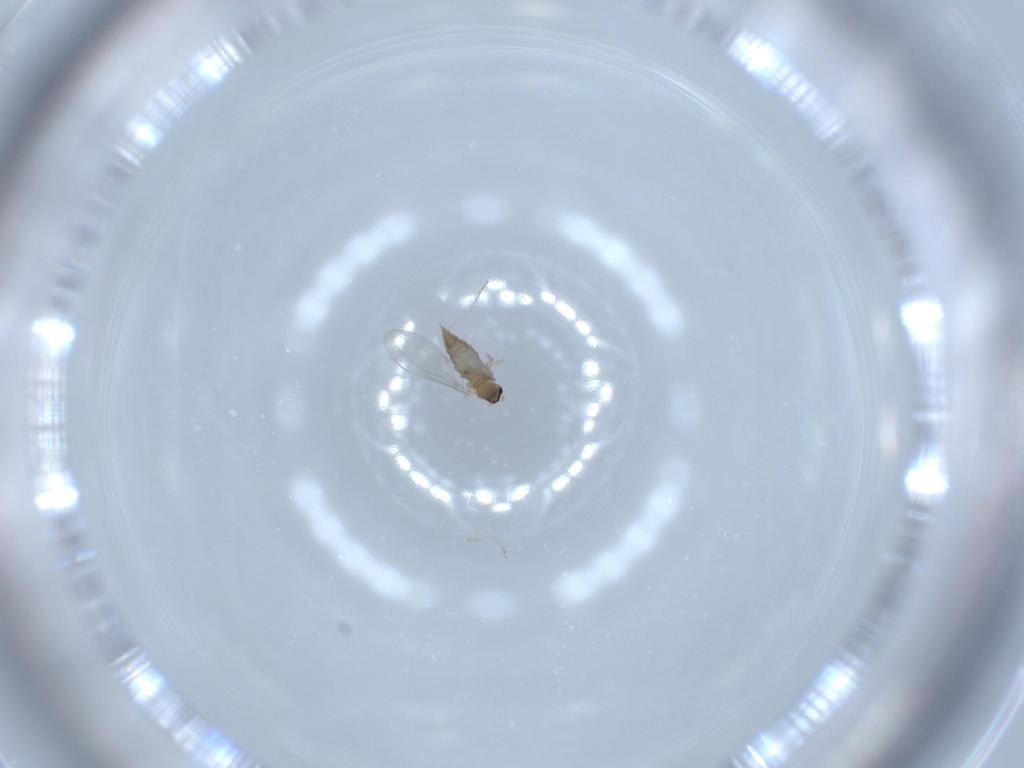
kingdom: Animalia
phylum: Arthropoda
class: Insecta
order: Diptera
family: Cecidomyiidae
